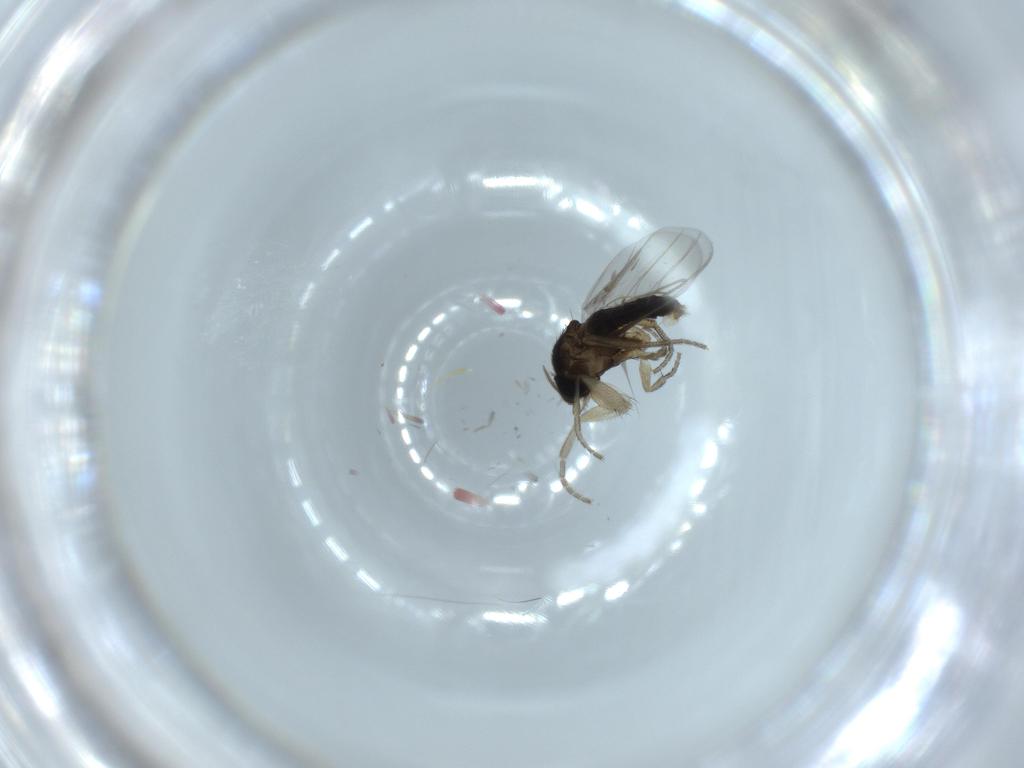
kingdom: Animalia
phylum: Arthropoda
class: Insecta
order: Diptera
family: Ceratopogonidae
